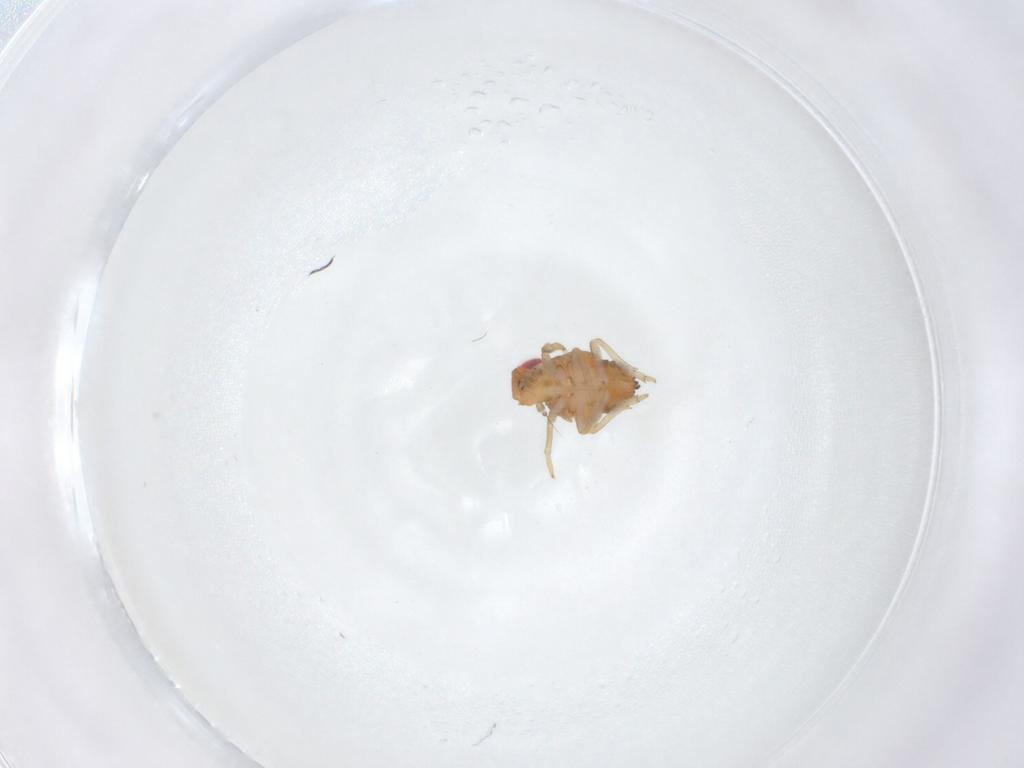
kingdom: Animalia
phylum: Arthropoda
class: Insecta
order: Hemiptera
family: Issidae
